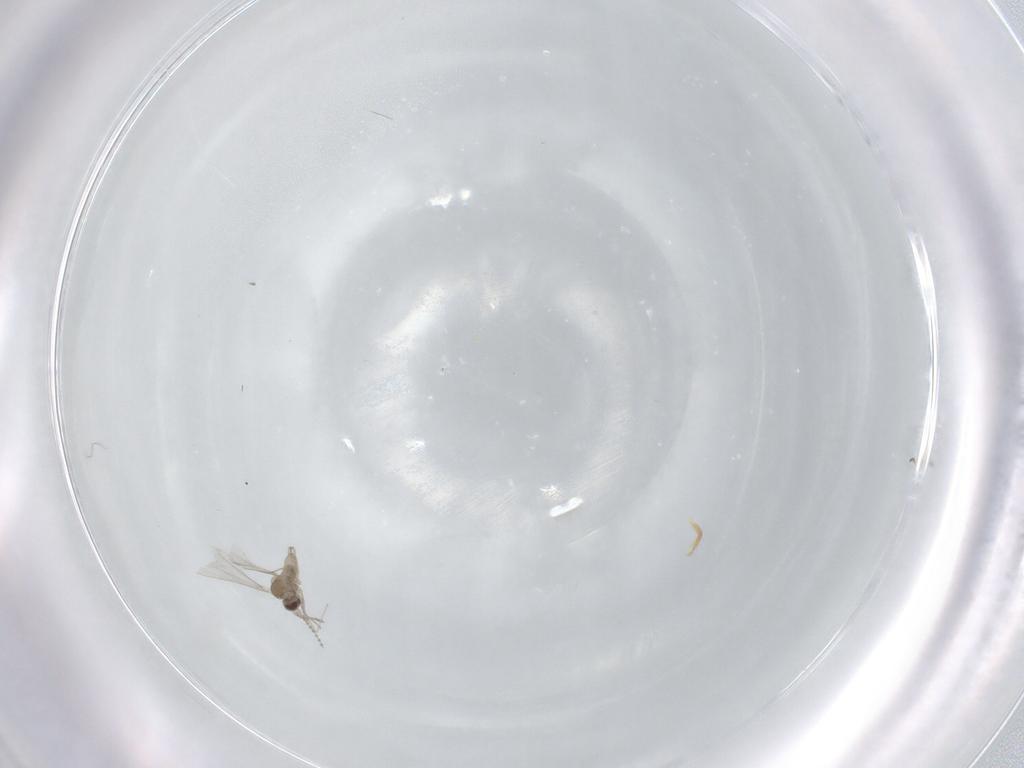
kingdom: Animalia
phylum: Arthropoda
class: Insecta
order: Diptera
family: Cecidomyiidae
